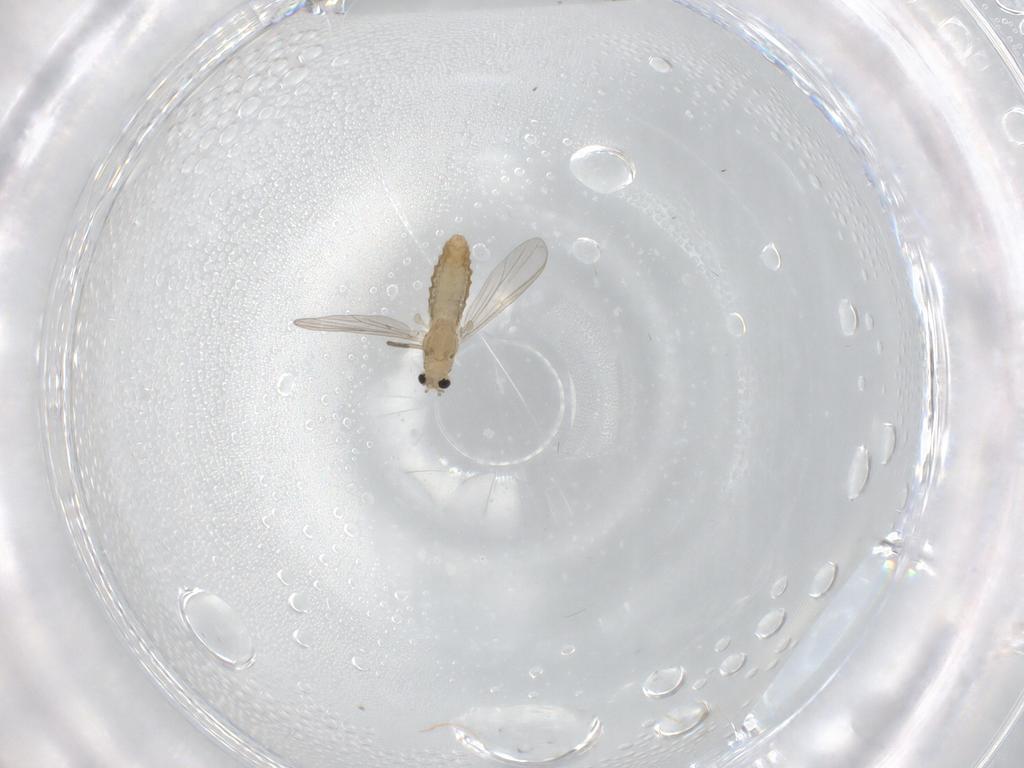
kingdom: Animalia
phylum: Arthropoda
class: Insecta
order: Diptera
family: Chironomidae
